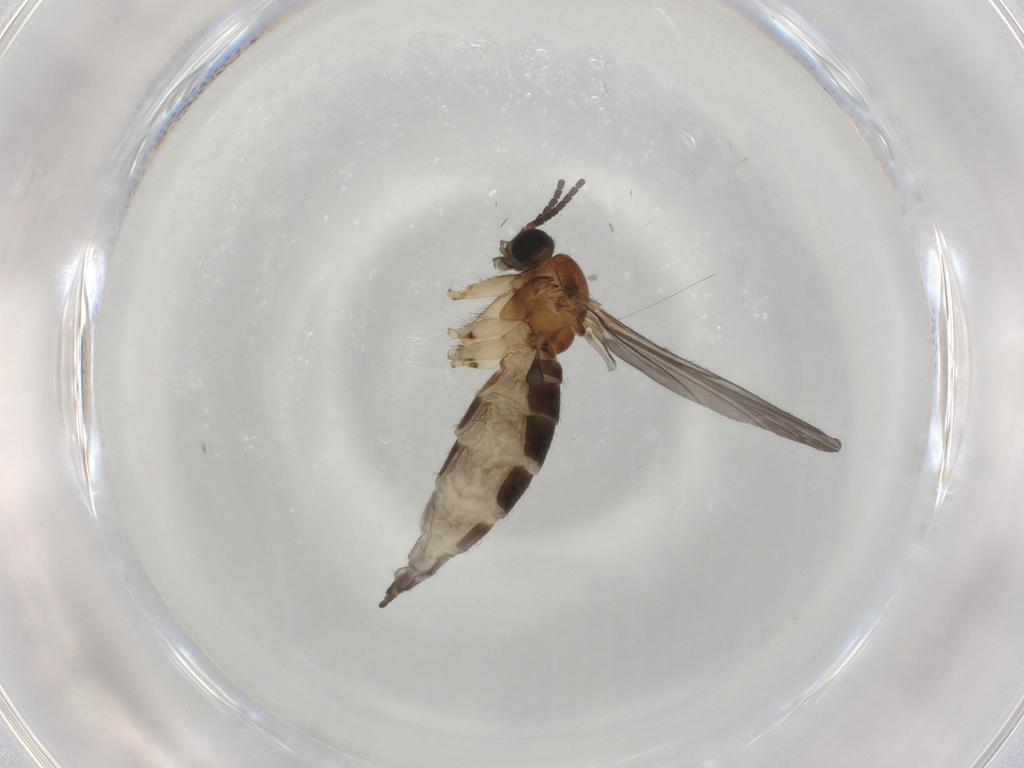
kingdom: Animalia
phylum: Arthropoda
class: Insecta
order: Diptera
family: Sciaridae
